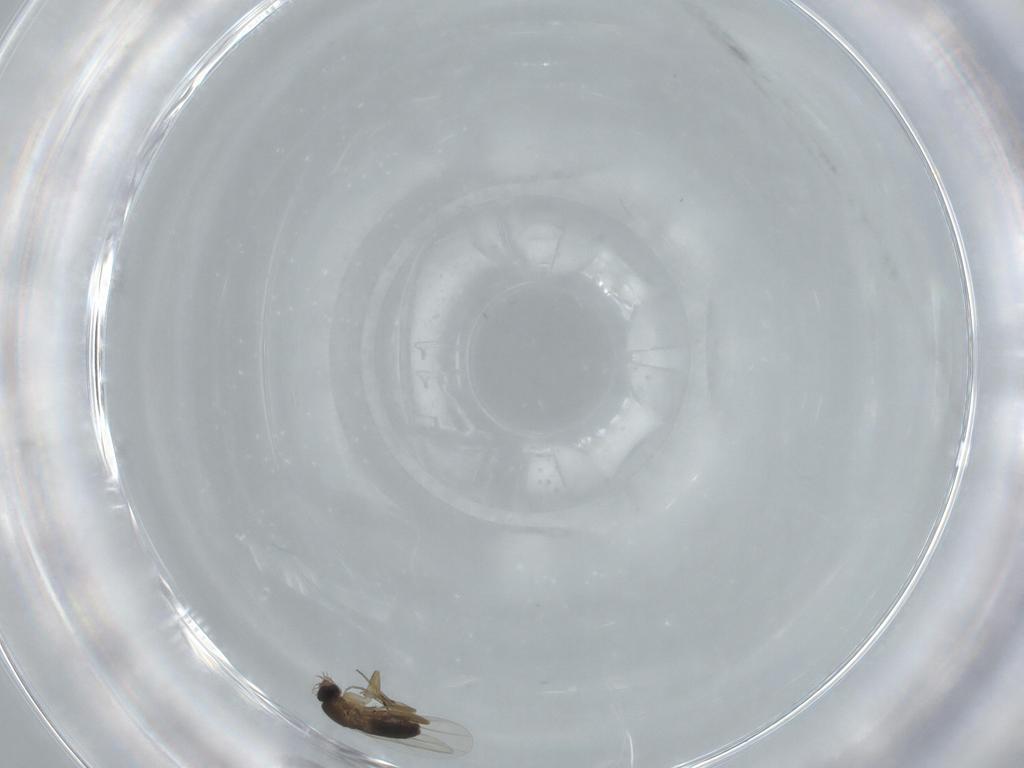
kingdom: Animalia
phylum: Arthropoda
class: Insecta
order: Diptera
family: Phoridae
